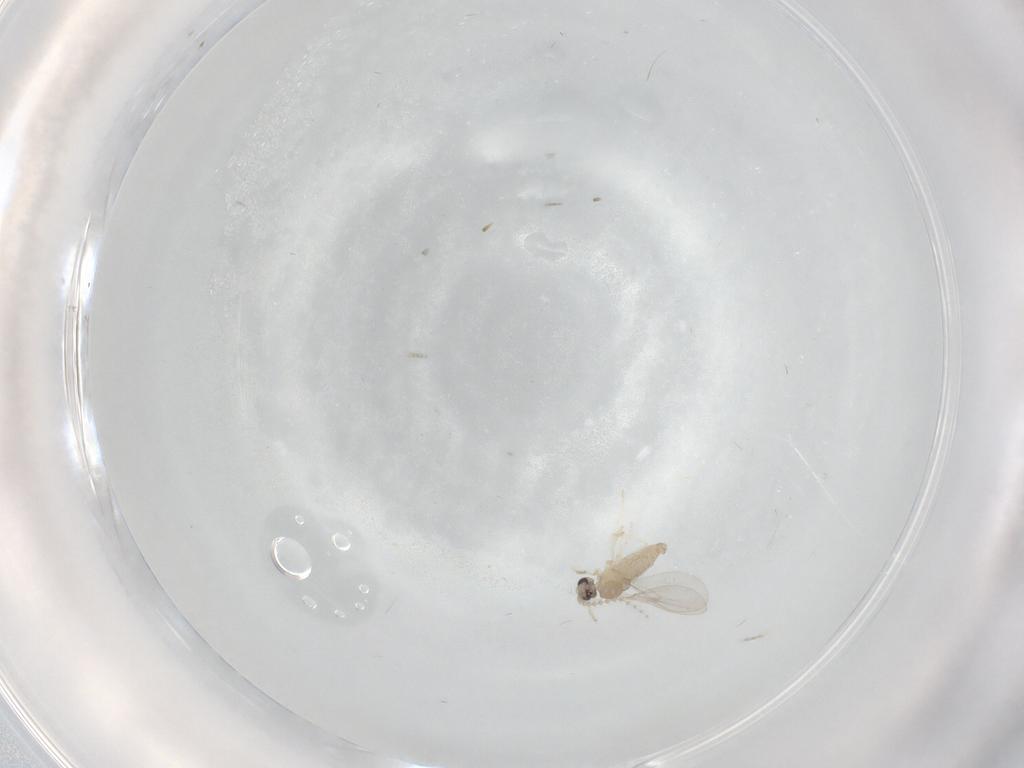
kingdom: Animalia
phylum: Arthropoda
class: Insecta
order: Diptera
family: Cecidomyiidae
